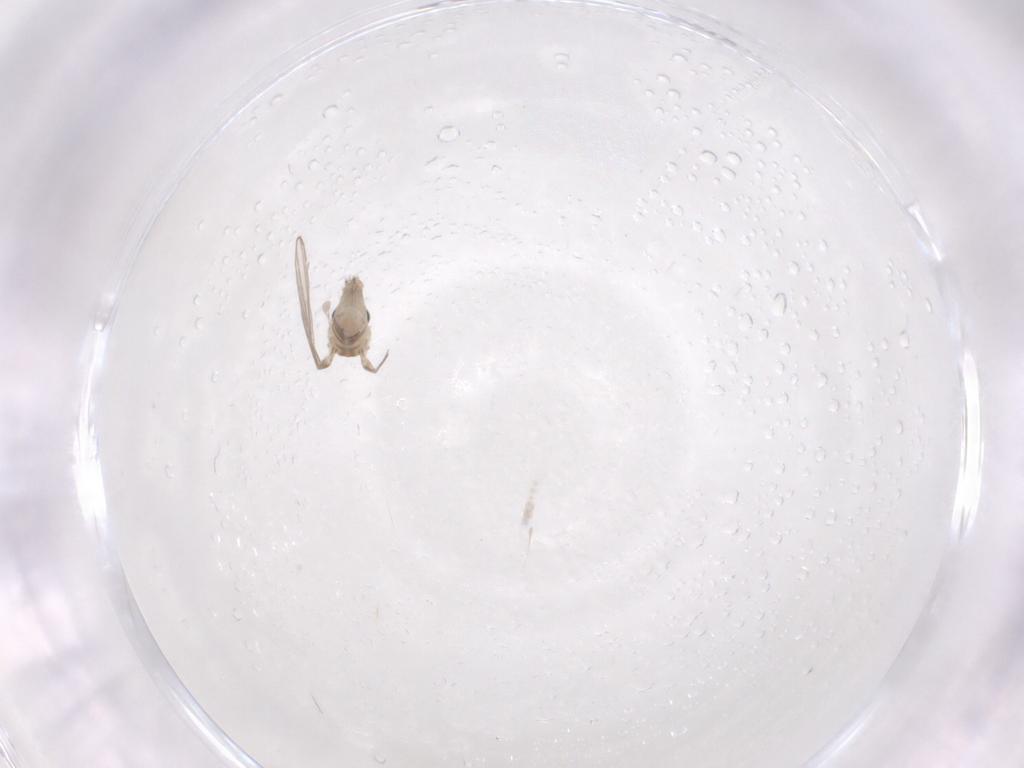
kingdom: Animalia
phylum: Arthropoda
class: Insecta
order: Diptera
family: Psychodidae
